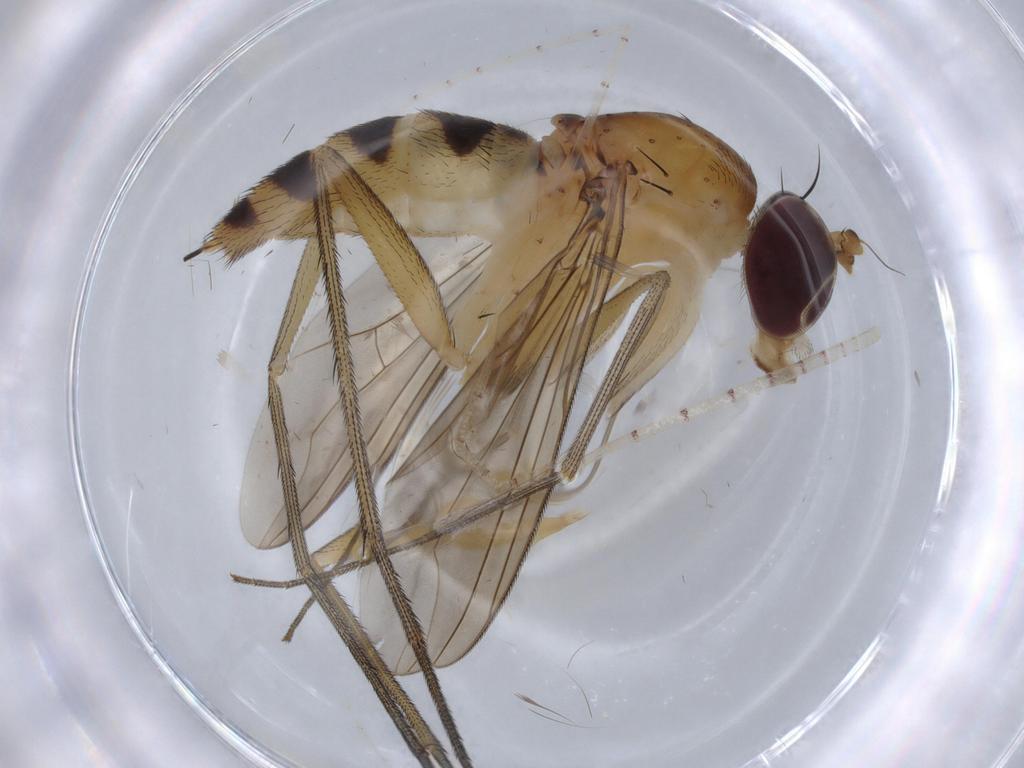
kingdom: Animalia
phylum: Arthropoda
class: Insecta
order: Diptera
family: Dolichopodidae
